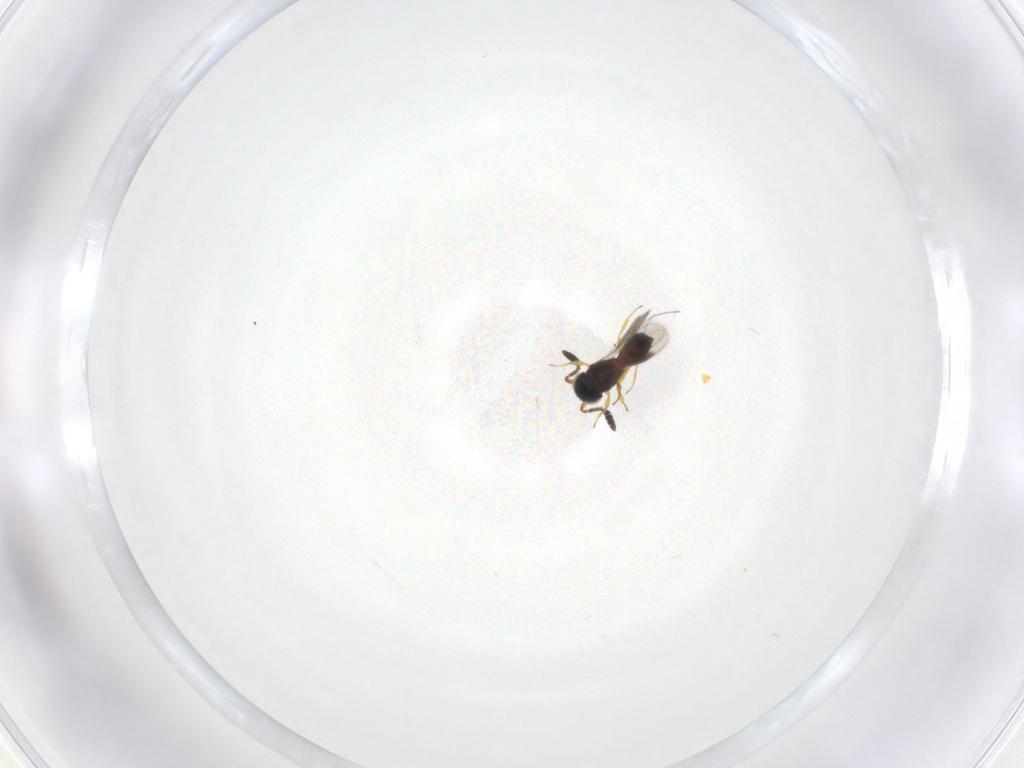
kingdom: Animalia
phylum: Arthropoda
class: Insecta
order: Hymenoptera
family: Scelionidae
